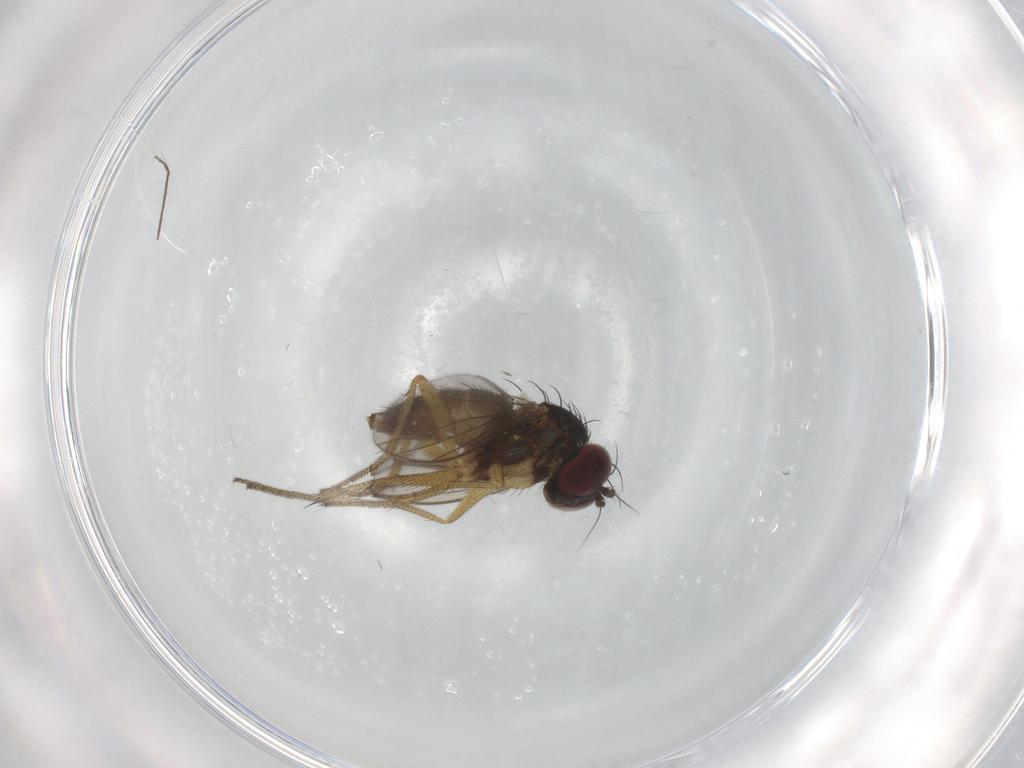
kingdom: Animalia
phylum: Arthropoda
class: Insecta
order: Diptera
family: Dolichopodidae
